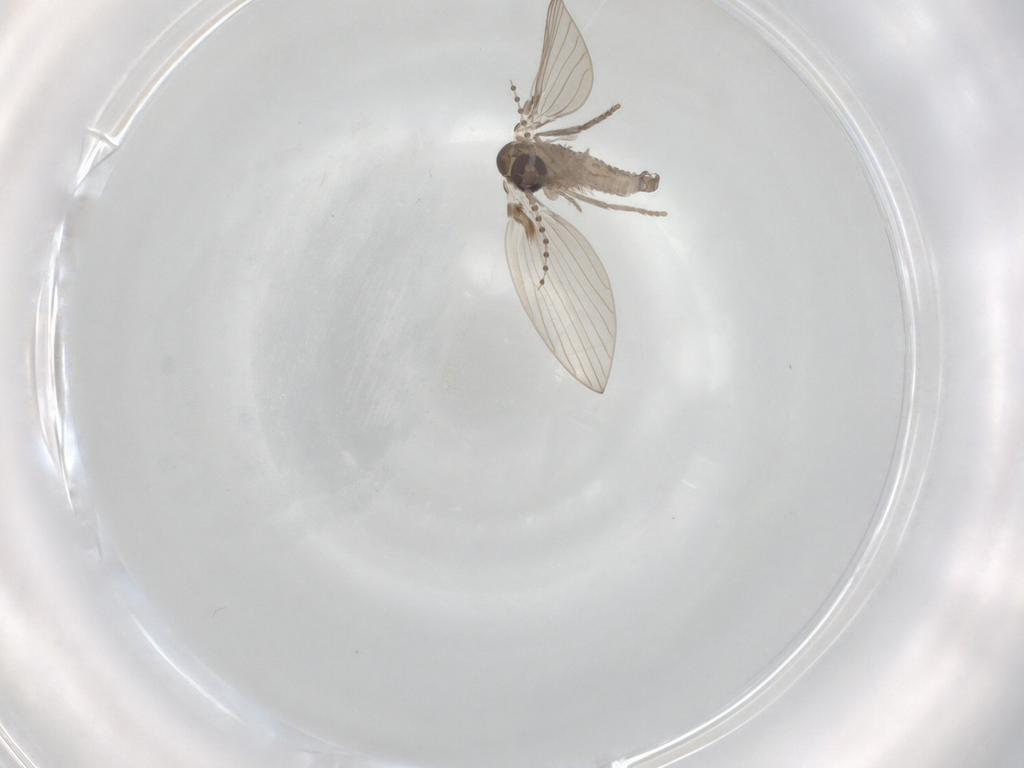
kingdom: Animalia
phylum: Arthropoda
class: Insecta
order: Diptera
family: Psychodidae
